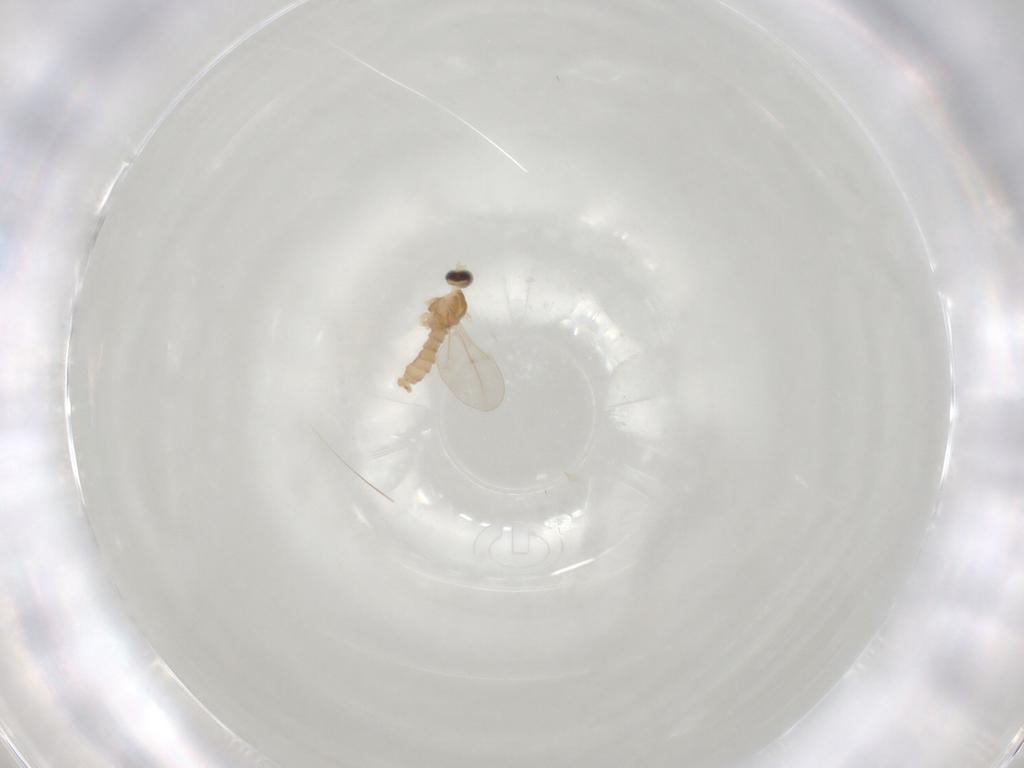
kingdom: Animalia
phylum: Arthropoda
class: Insecta
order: Diptera
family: Cecidomyiidae
